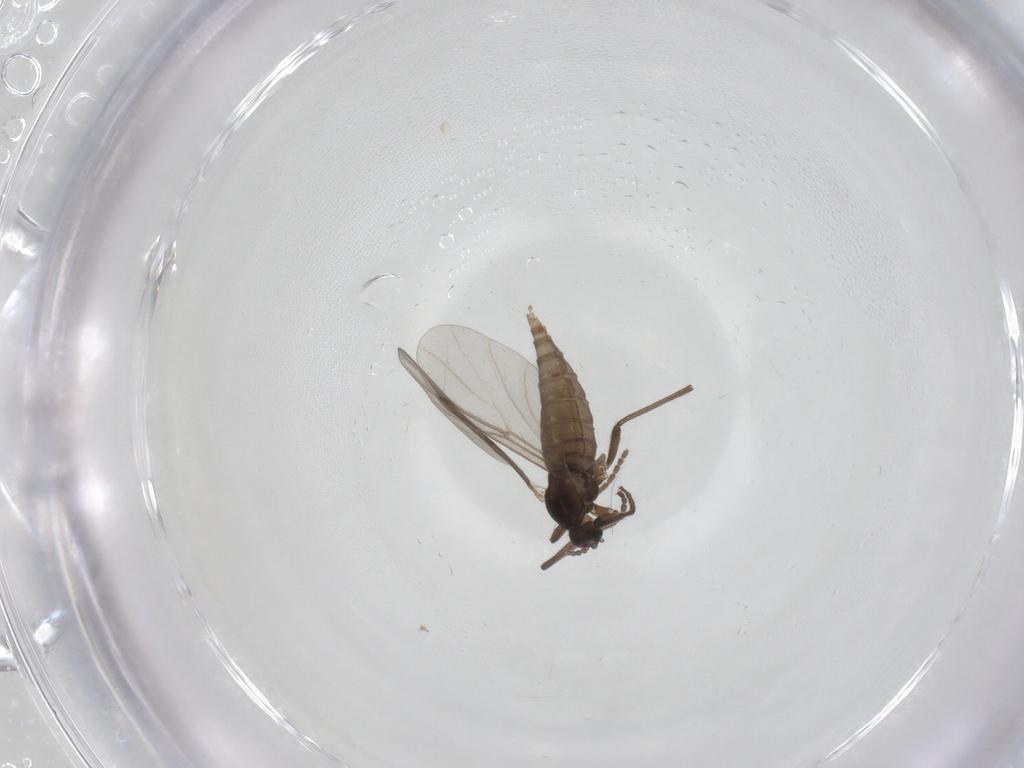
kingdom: Animalia
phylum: Arthropoda
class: Insecta
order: Diptera
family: Cecidomyiidae
